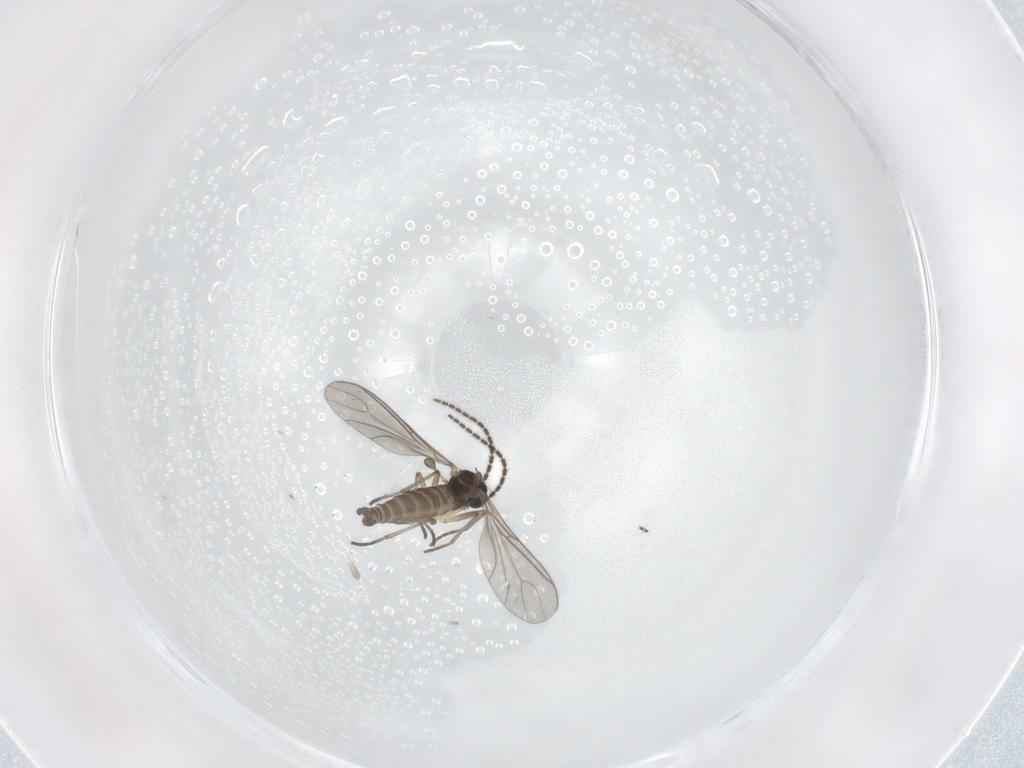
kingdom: Animalia
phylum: Arthropoda
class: Insecta
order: Diptera
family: Sciaridae
